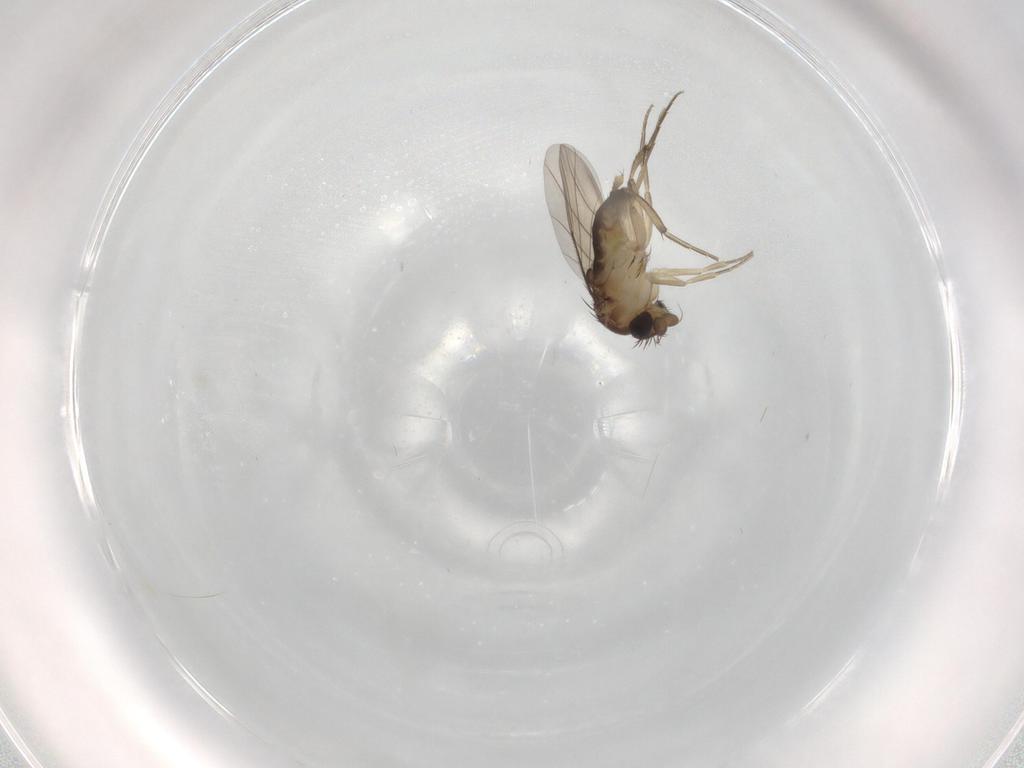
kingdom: Animalia
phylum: Arthropoda
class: Insecta
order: Diptera
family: Phoridae
